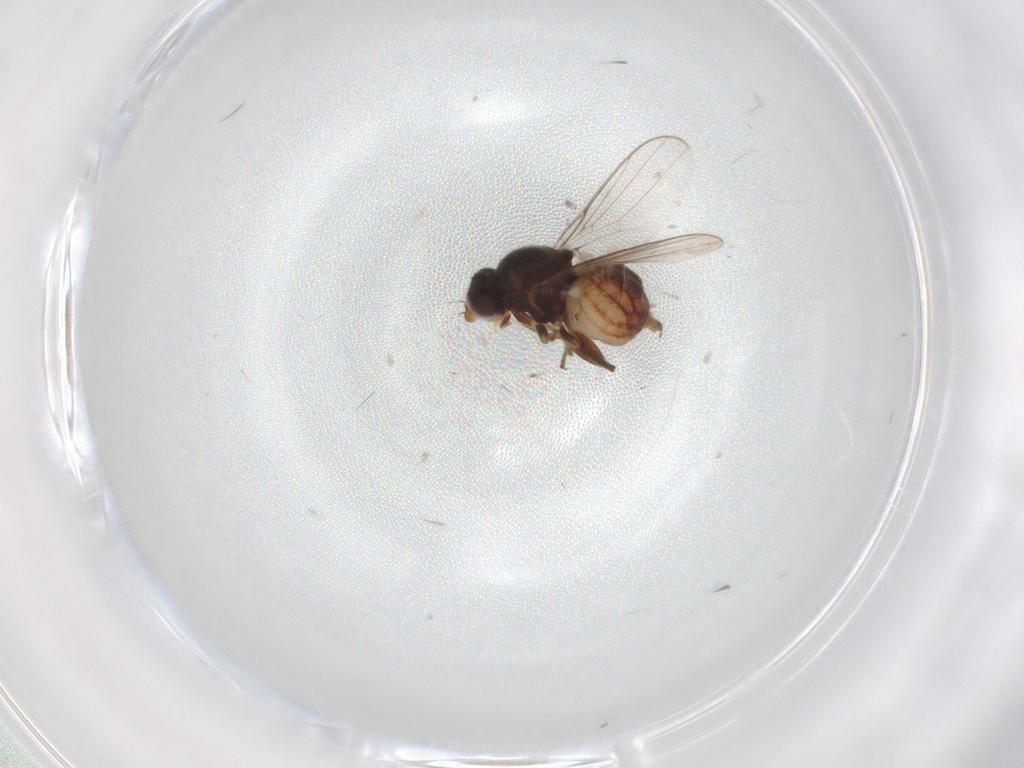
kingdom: Animalia
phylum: Arthropoda
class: Insecta
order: Diptera
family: Chloropidae
